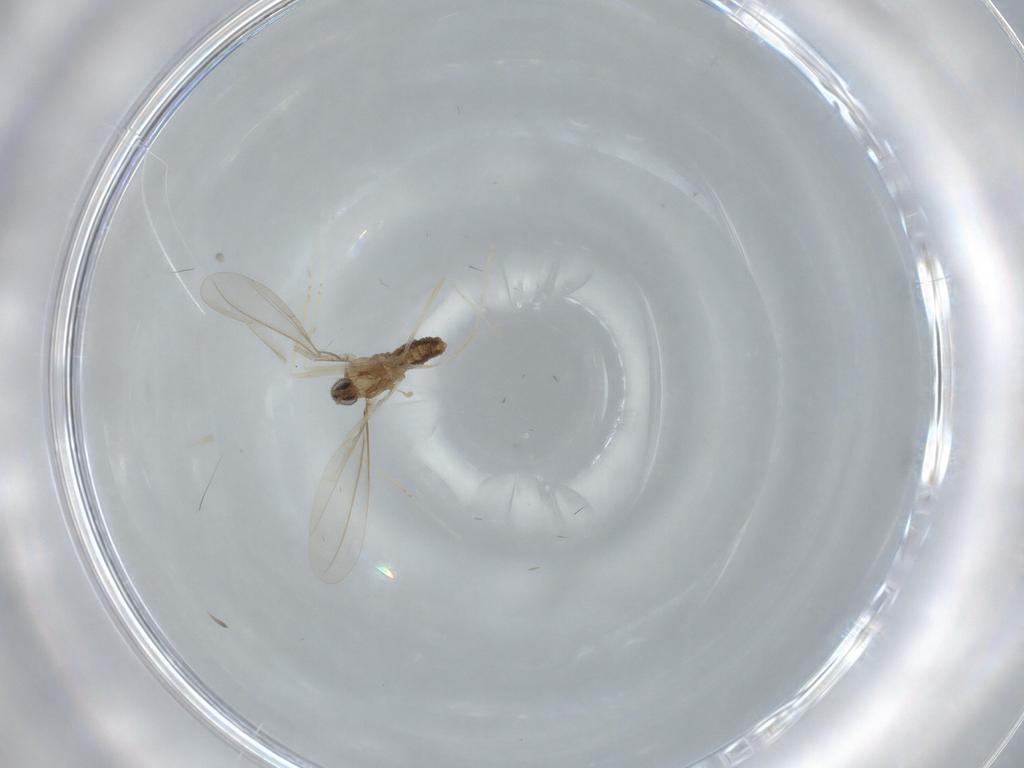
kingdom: Animalia
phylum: Arthropoda
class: Insecta
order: Diptera
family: Cecidomyiidae
